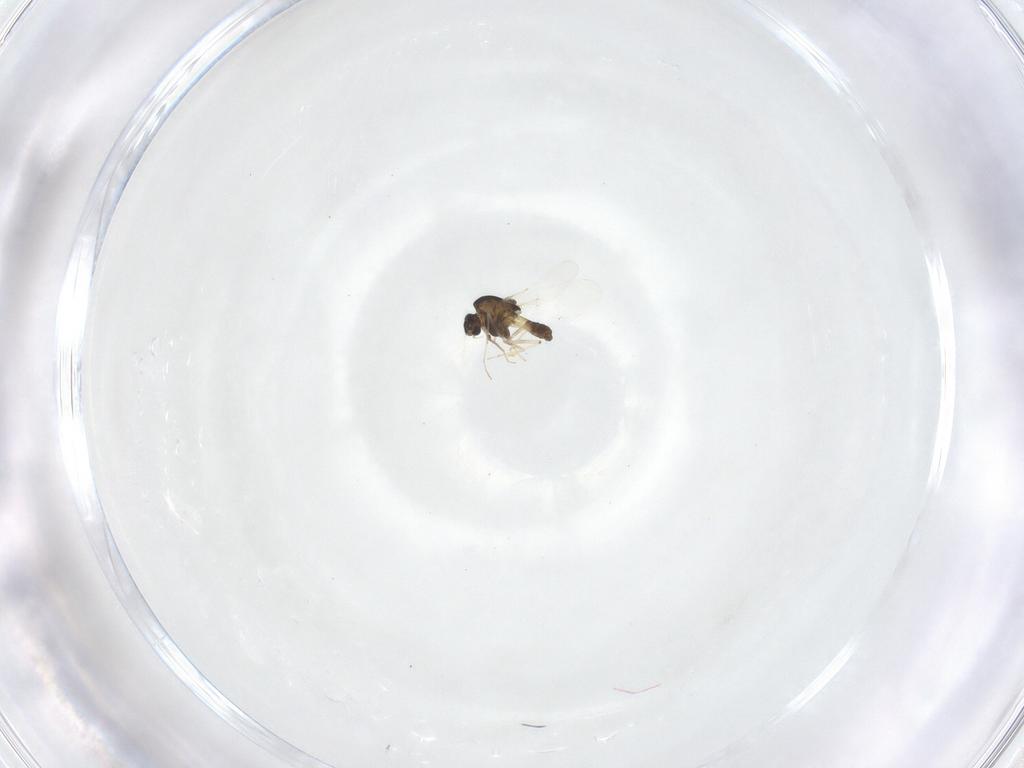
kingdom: Animalia
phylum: Arthropoda
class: Insecta
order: Diptera
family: Chironomidae
